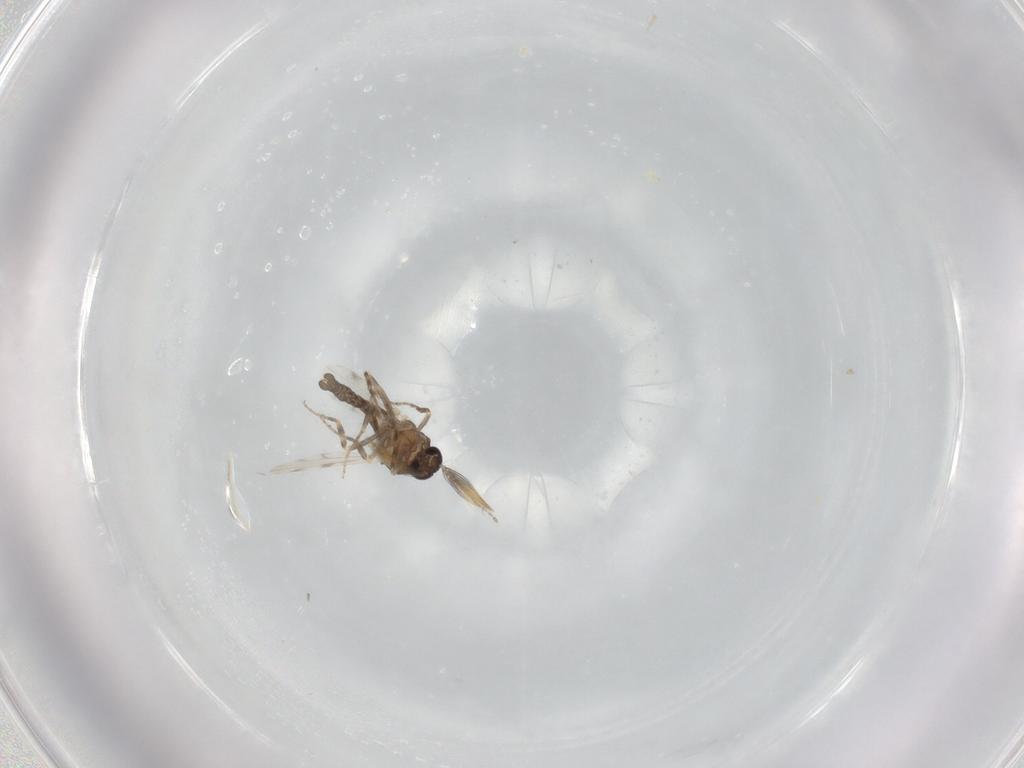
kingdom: Animalia
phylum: Arthropoda
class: Insecta
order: Diptera
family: Ceratopogonidae
